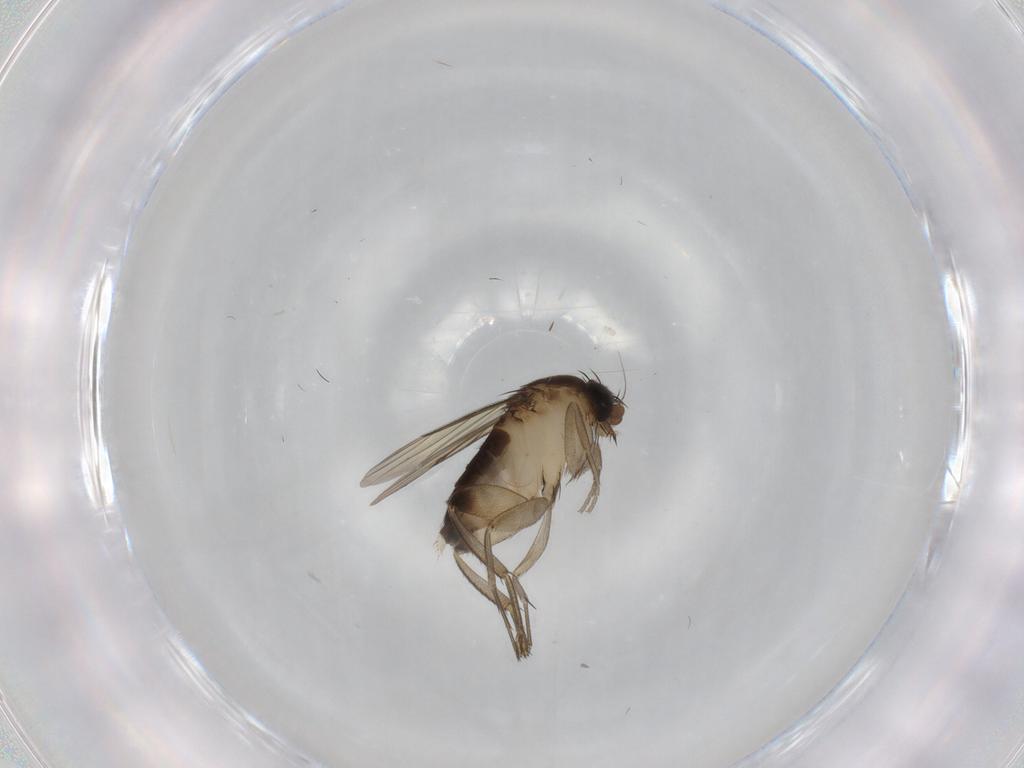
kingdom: Animalia
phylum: Arthropoda
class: Insecta
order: Diptera
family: Phoridae
